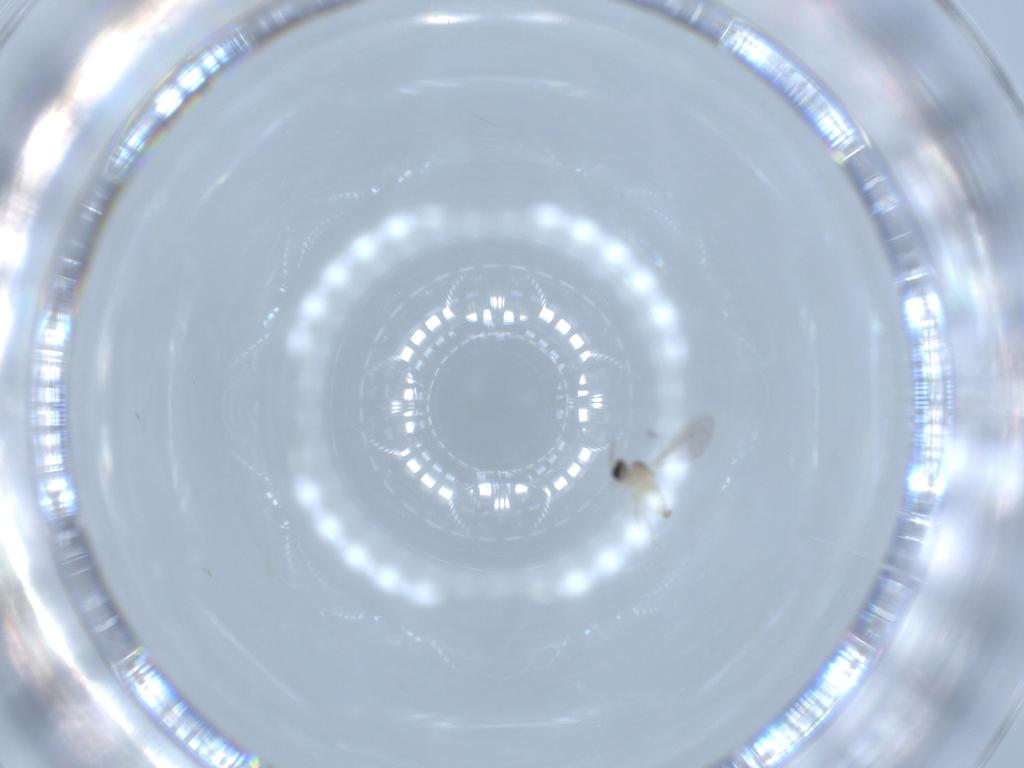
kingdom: Animalia
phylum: Arthropoda
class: Insecta
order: Diptera
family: Cecidomyiidae
